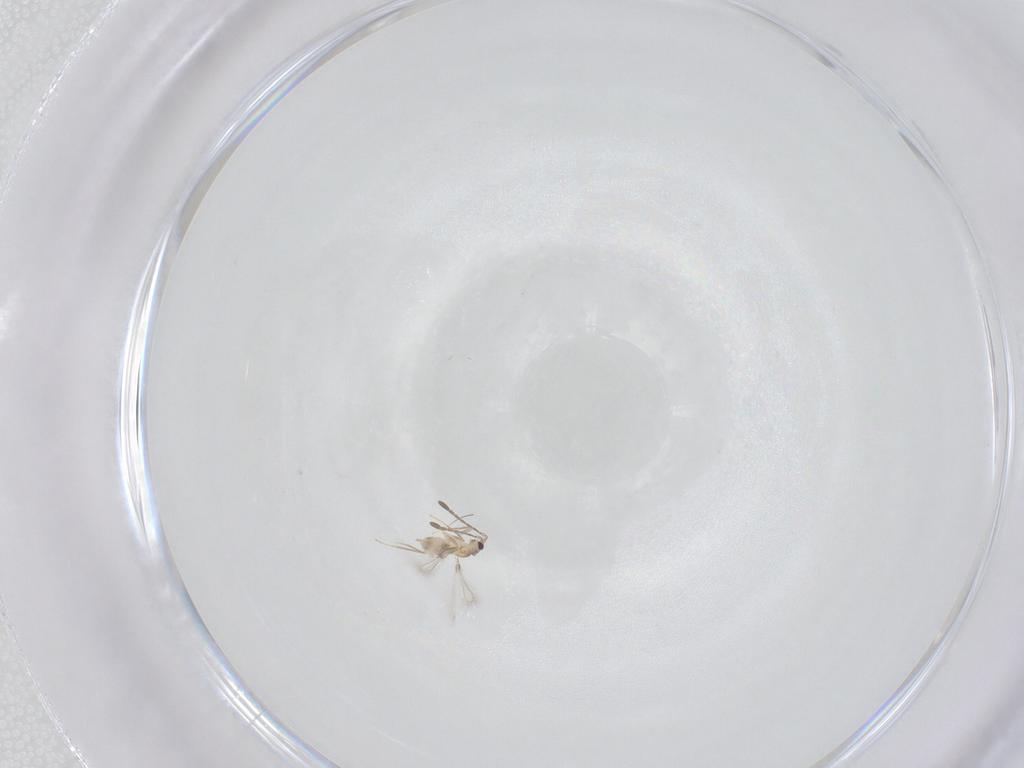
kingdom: Animalia
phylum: Arthropoda
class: Insecta
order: Hymenoptera
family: Mymaridae
